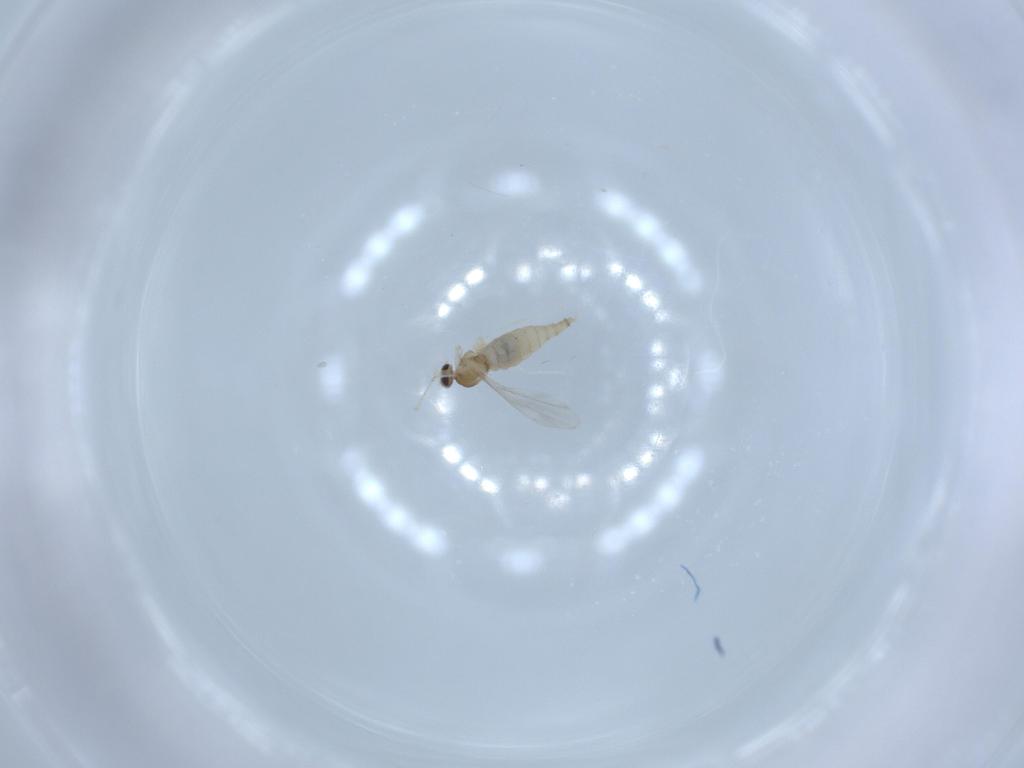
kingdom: Animalia
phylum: Arthropoda
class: Insecta
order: Diptera
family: Cecidomyiidae
